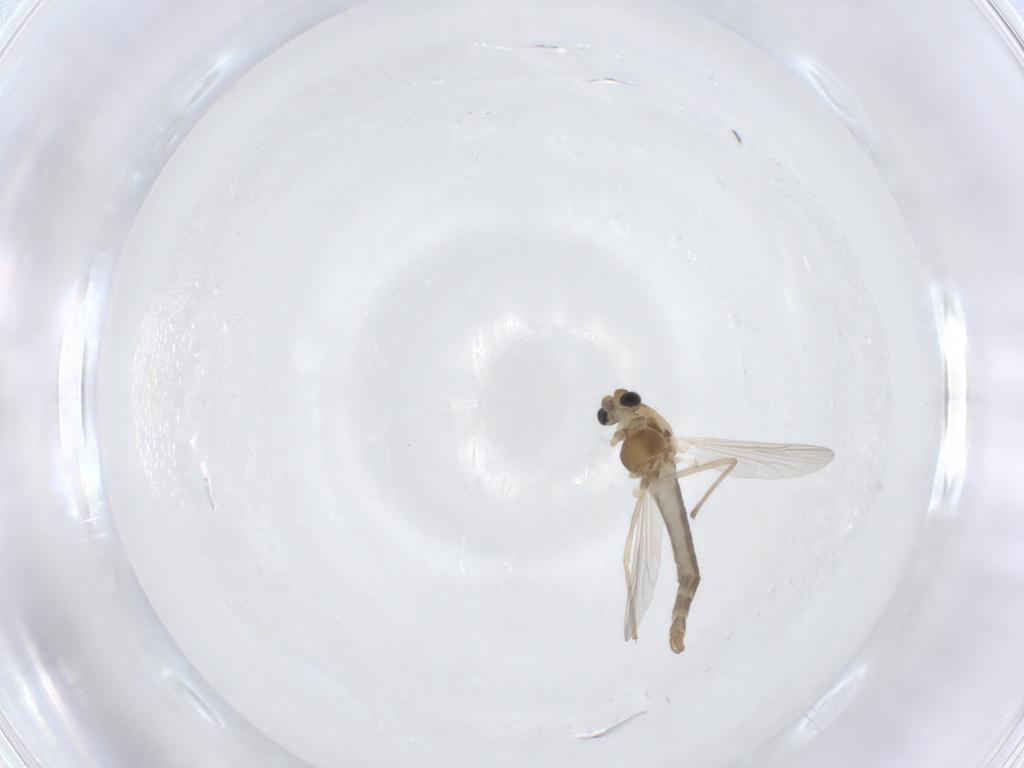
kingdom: Animalia
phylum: Arthropoda
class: Insecta
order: Diptera
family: Chironomidae
